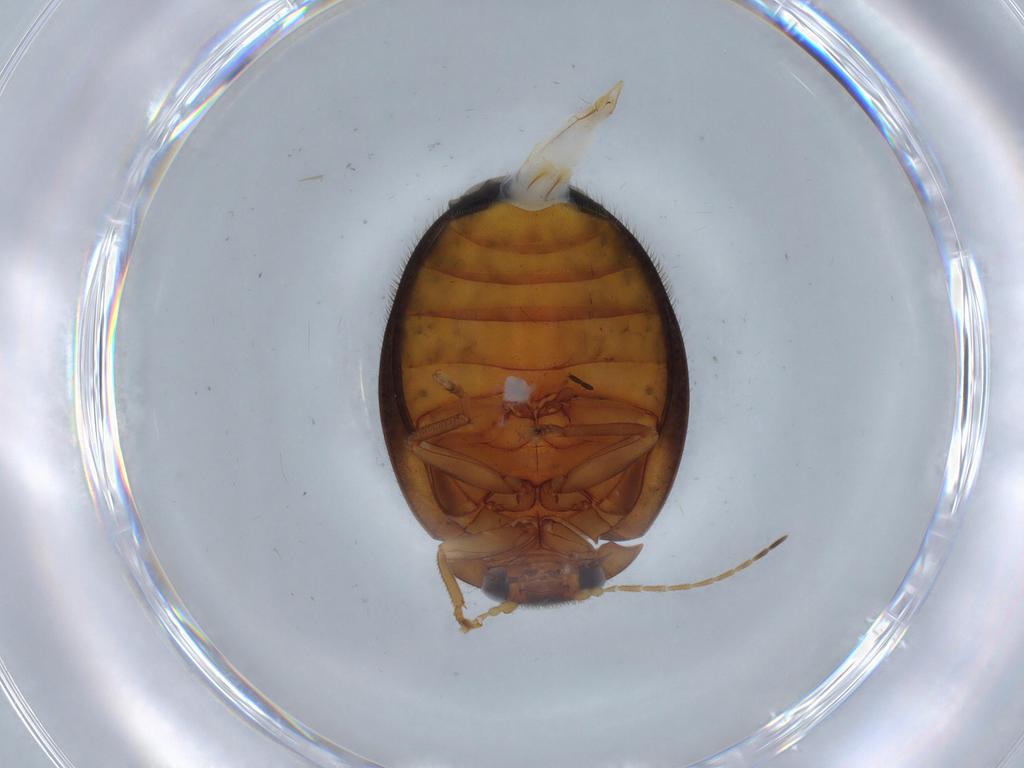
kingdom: Animalia
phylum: Arthropoda
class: Insecta
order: Coleoptera
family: Scirtidae
